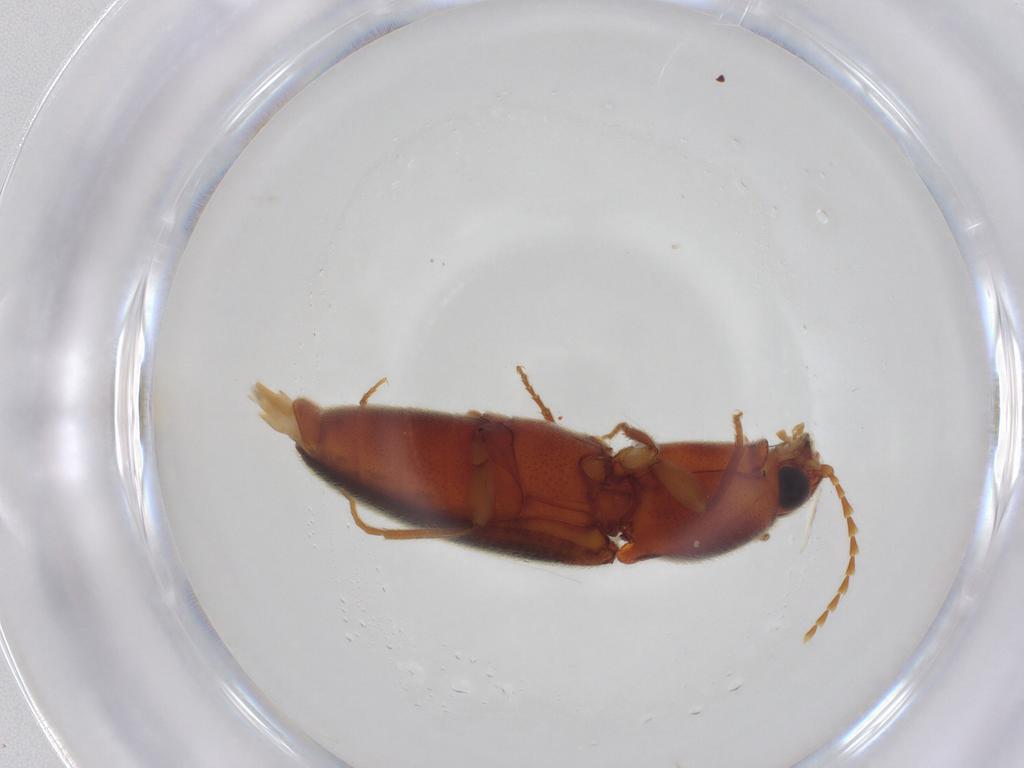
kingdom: Animalia
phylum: Arthropoda
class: Insecta
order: Coleoptera
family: Elateridae
